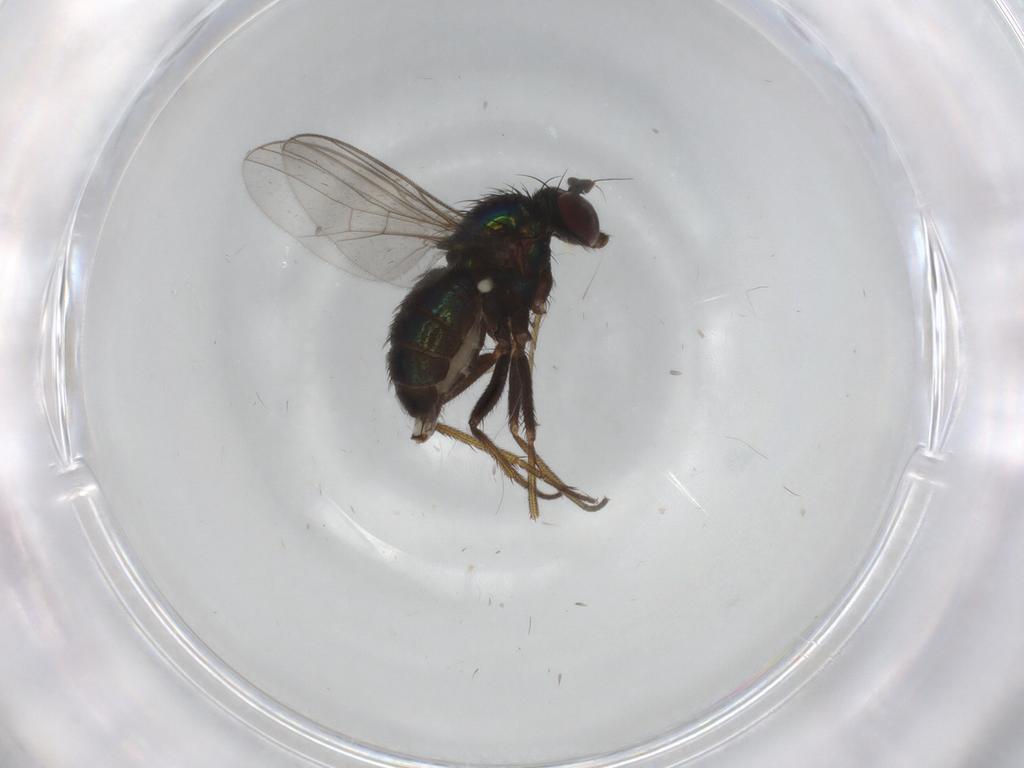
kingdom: Animalia
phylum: Arthropoda
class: Insecta
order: Diptera
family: Dolichopodidae
